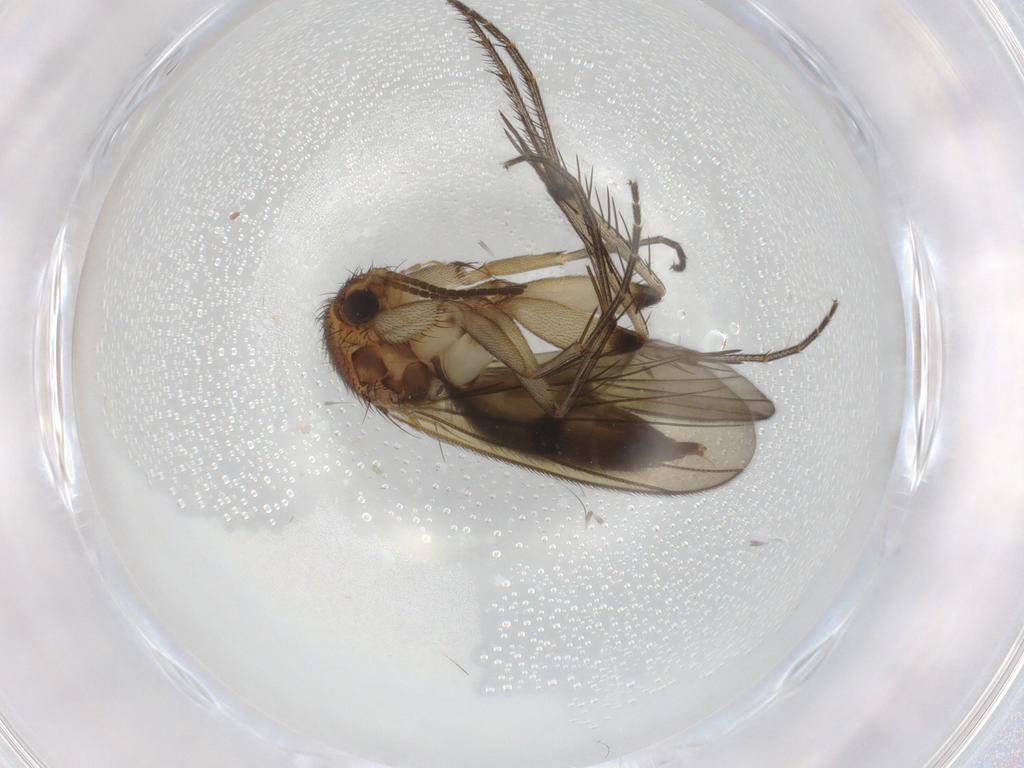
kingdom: Animalia
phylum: Arthropoda
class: Insecta
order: Diptera
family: Mycetophilidae
